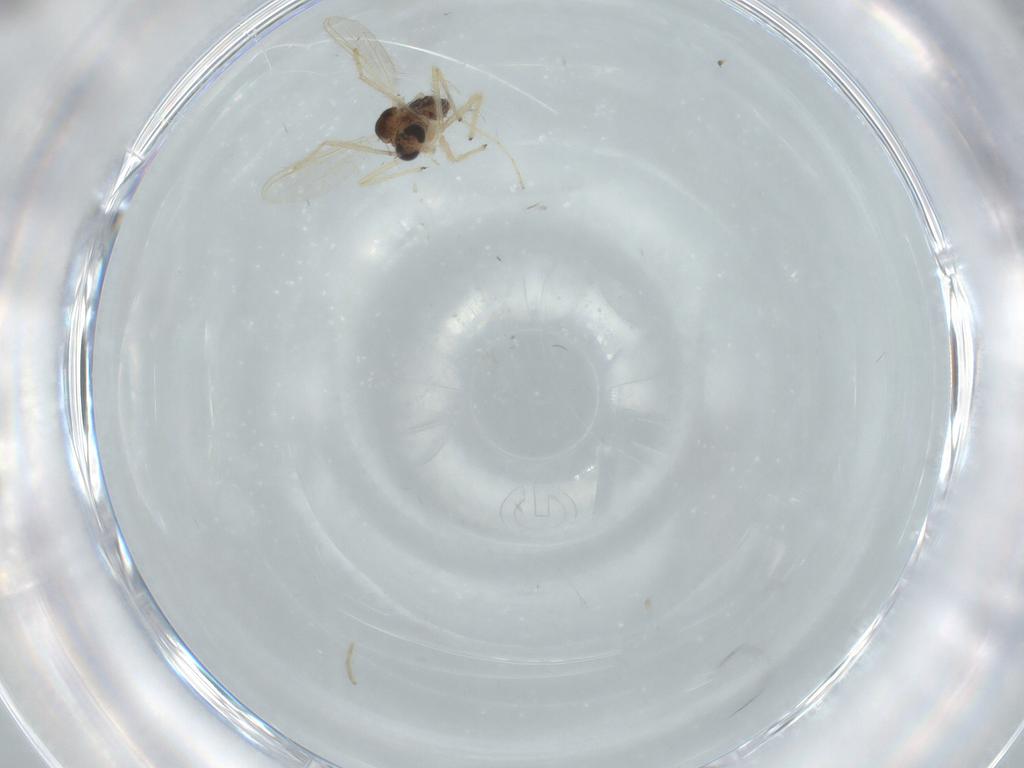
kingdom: Animalia
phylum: Arthropoda
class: Insecta
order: Diptera
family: Chironomidae
